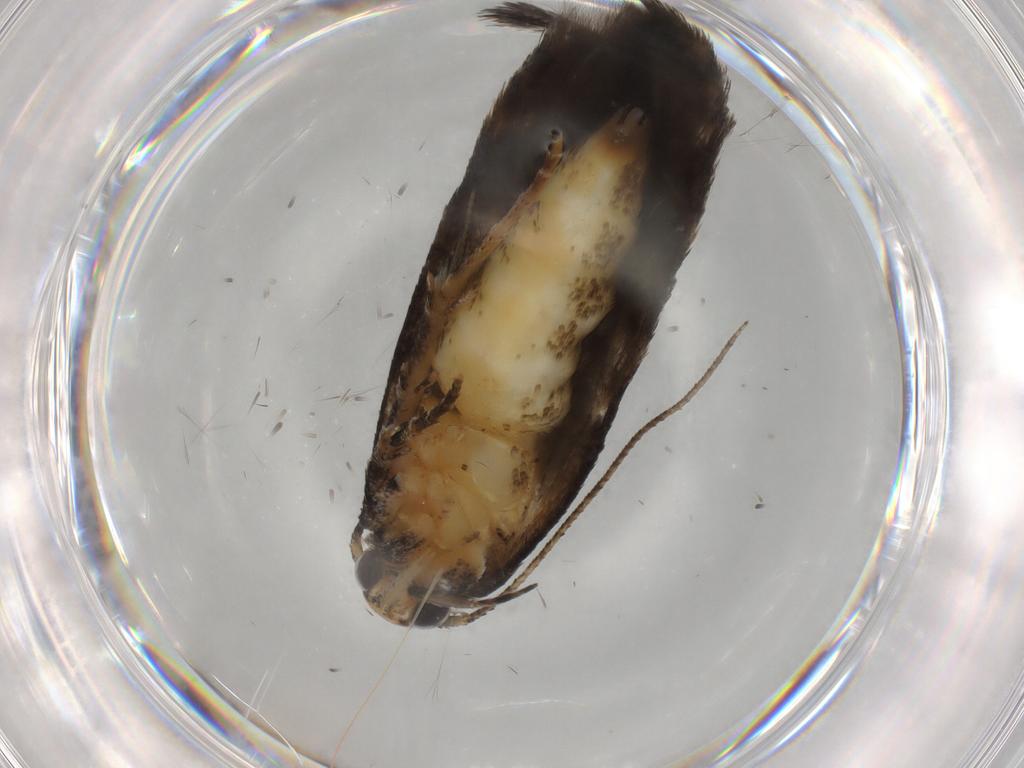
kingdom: Animalia
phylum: Arthropoda
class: Insecta
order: Lepidoptera
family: Gelechiidae
